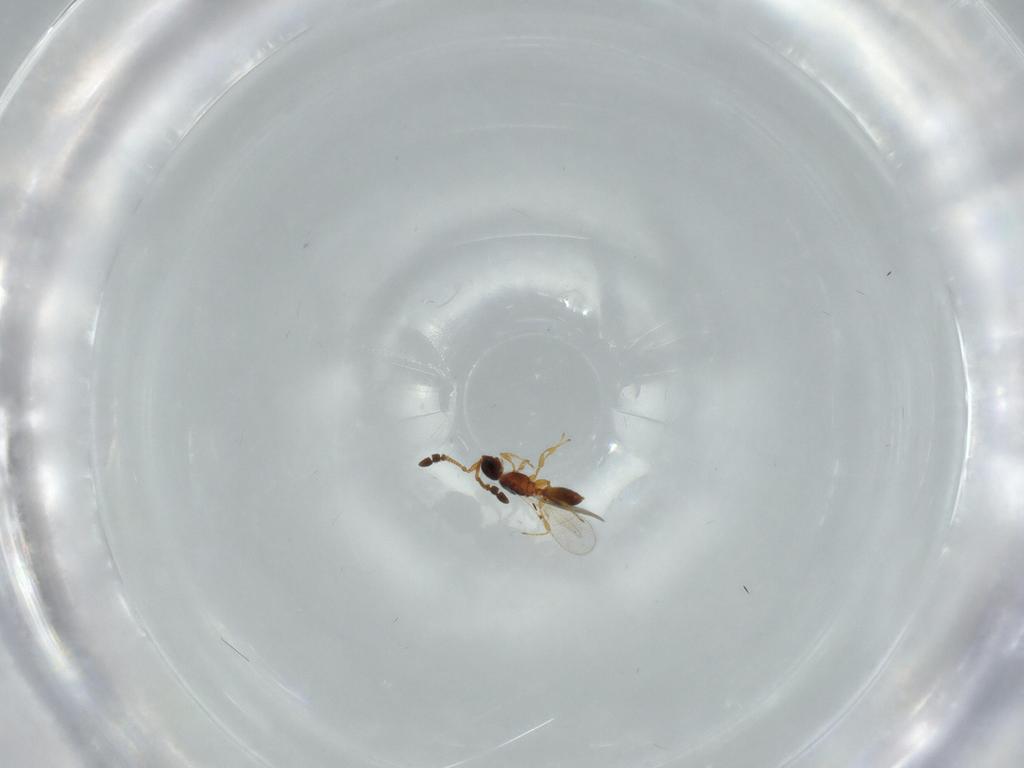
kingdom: Animalia
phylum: Arthropoda
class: Insecta
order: Hymenoptera
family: Diapriidae
